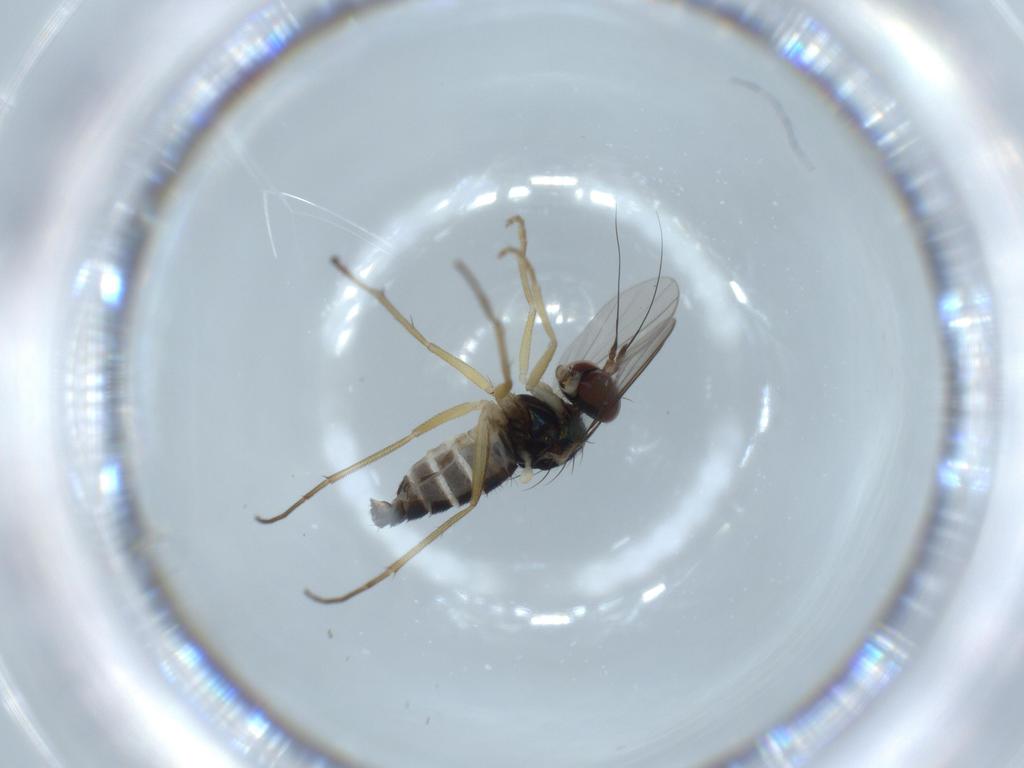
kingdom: Animalia
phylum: Arthropoda
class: Insecta
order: Diptera
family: Dolichopodidae
